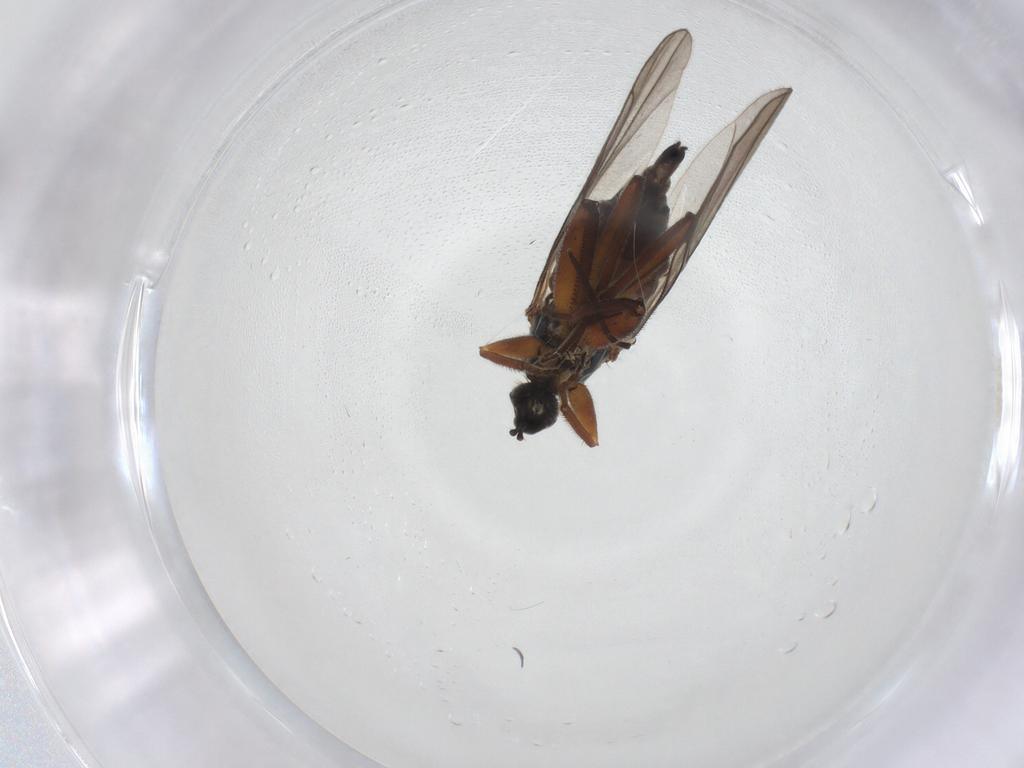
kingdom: Animalia
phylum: Arthropoda
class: Insecta
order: Diptera
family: Hybotidae
